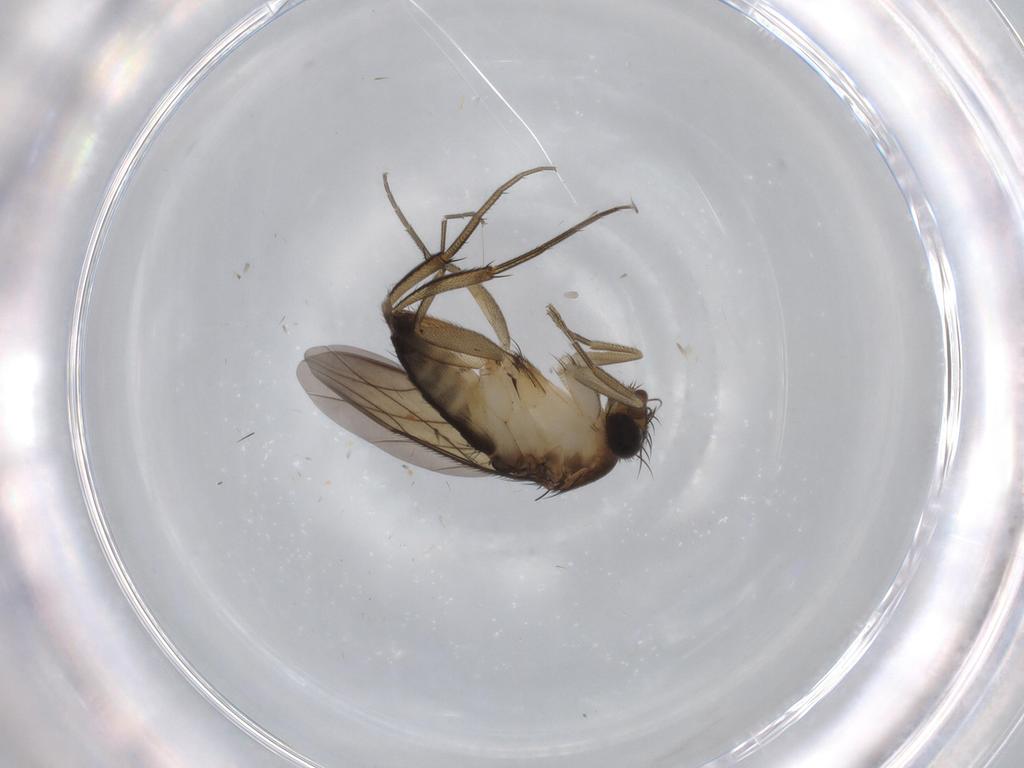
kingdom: Animalia
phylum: Arthropoda
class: Insecta
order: Diptera
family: Phoridae
